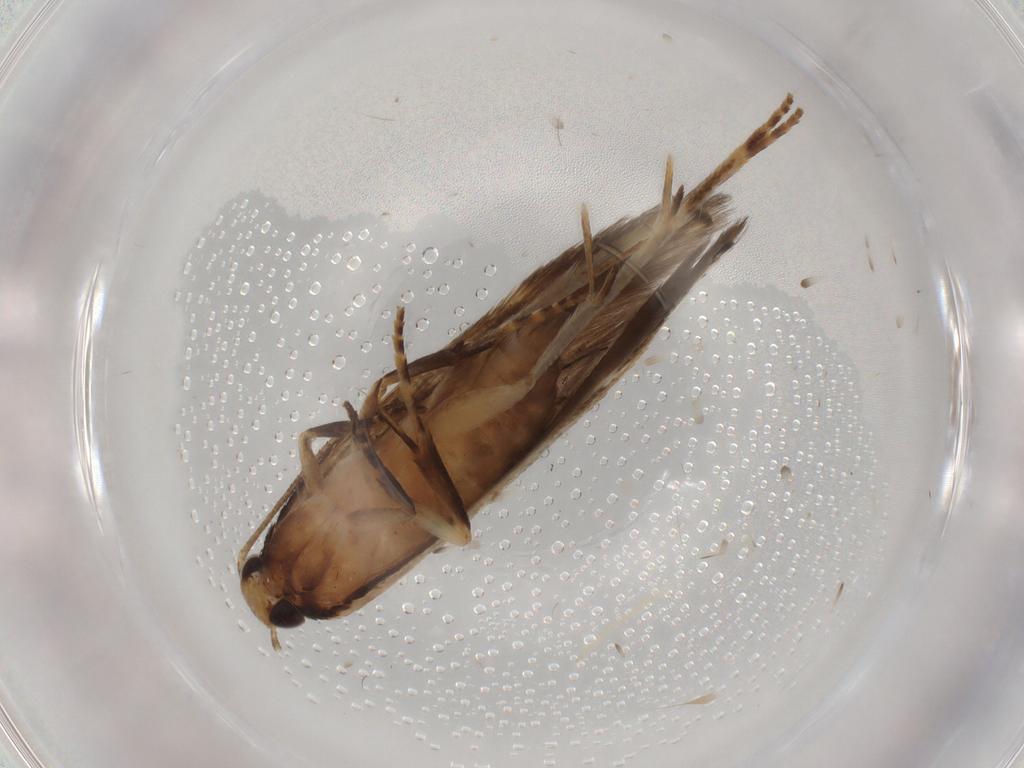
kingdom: Animalia
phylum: Arthropoda
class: Insecta
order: Lepidoptera
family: Gelechiidae
